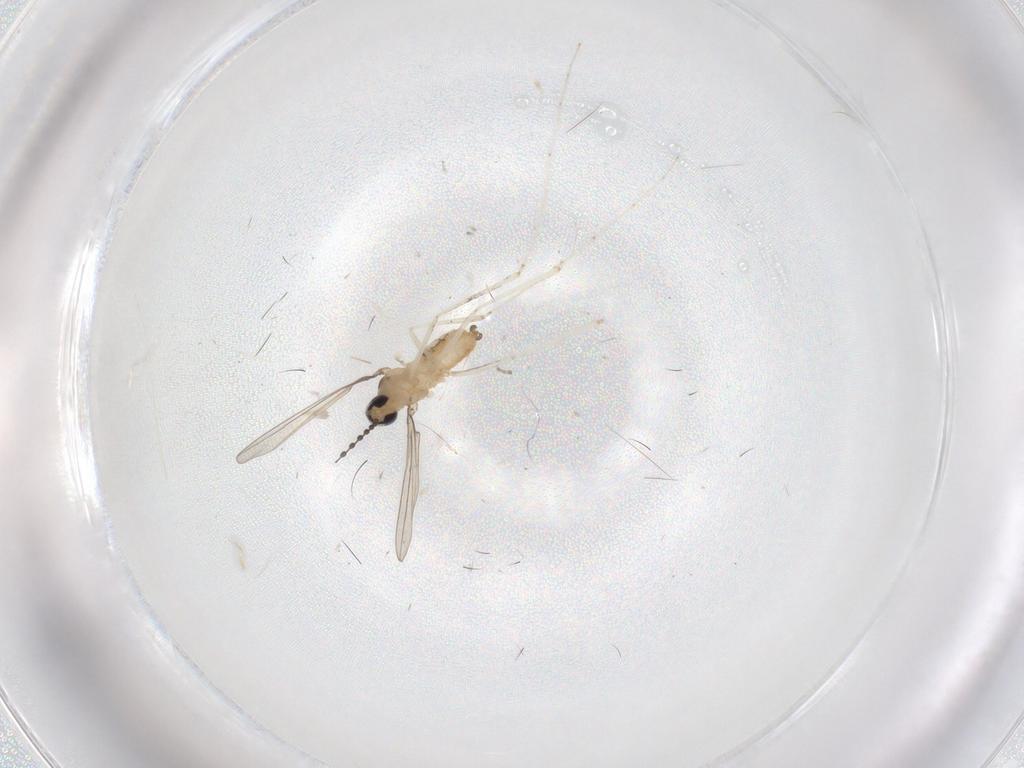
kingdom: Animalia
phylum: Arthropoda
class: Insecta
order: Diptera
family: Cecidomyiidae
